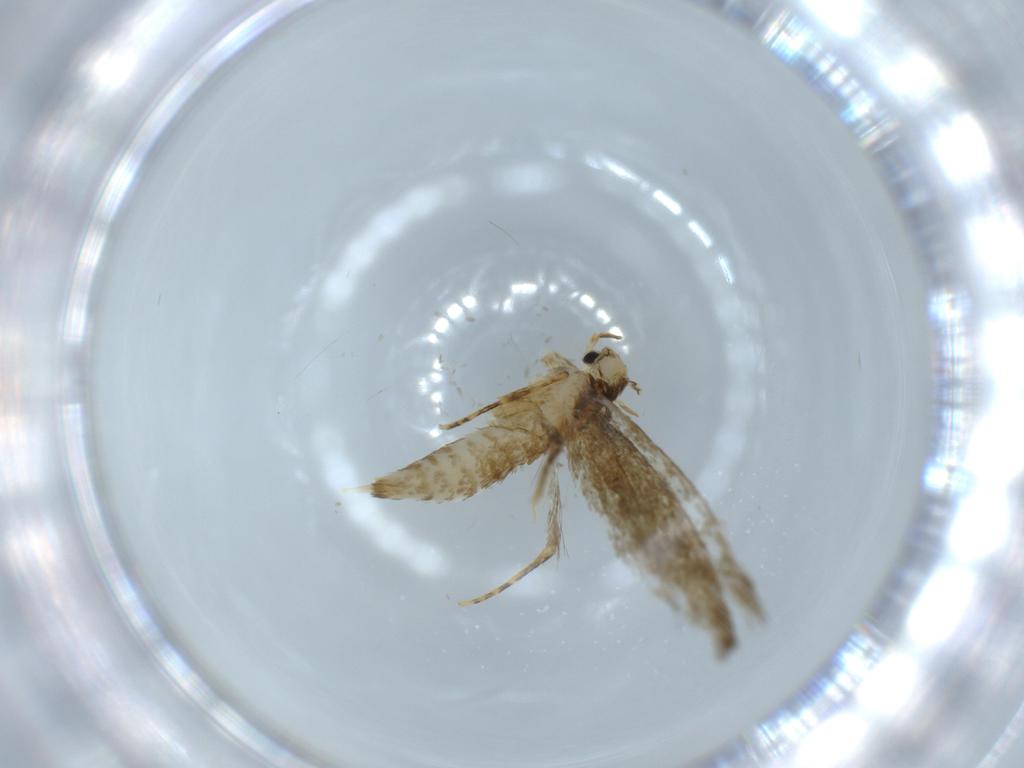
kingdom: Animalia
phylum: Arthropoda
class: Insecta
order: Lepidoptera
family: Tineidae
